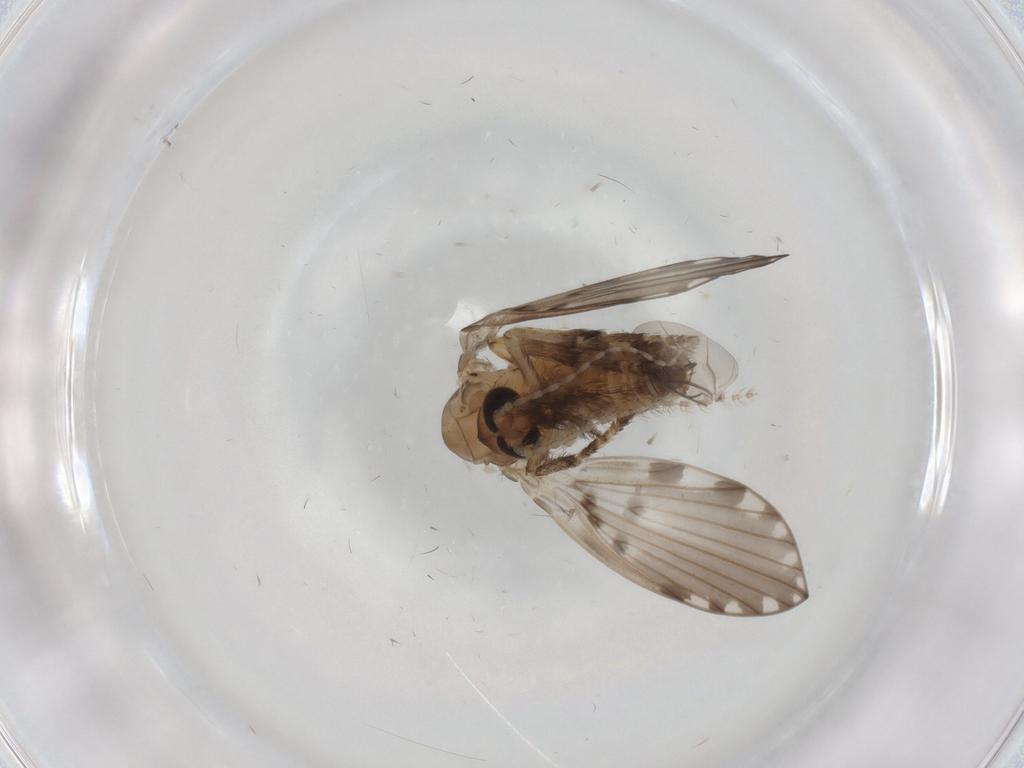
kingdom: Animalia
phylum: Arthropoda
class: Insecta
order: Diptera
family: Psychodidae
